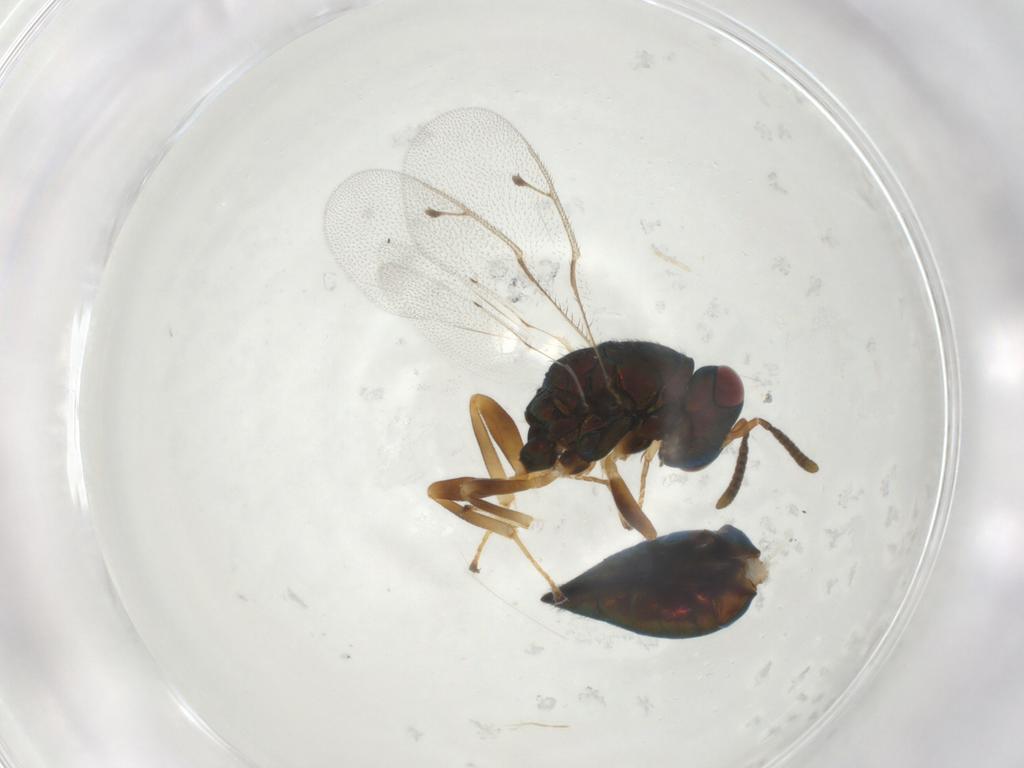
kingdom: Animalia
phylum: Arthropoda
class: Insecta
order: Hymenoptera
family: Pteromalidae
